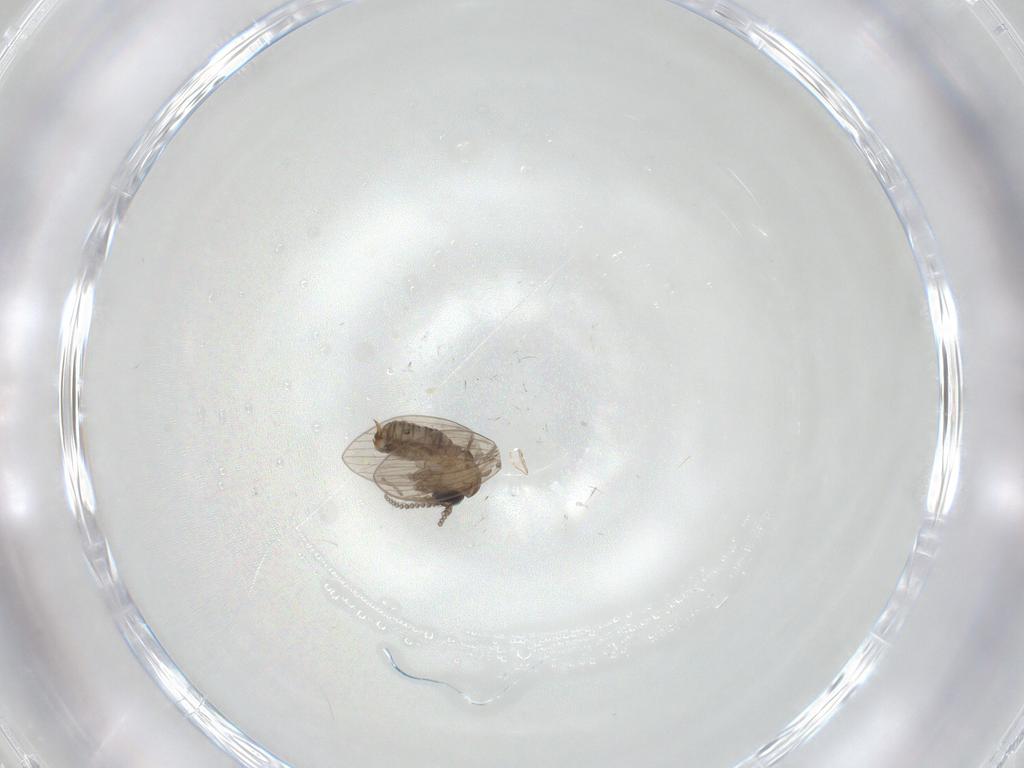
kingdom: Animalia
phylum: Arthropoda
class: Insecta
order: Diptera
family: Psychodidae
